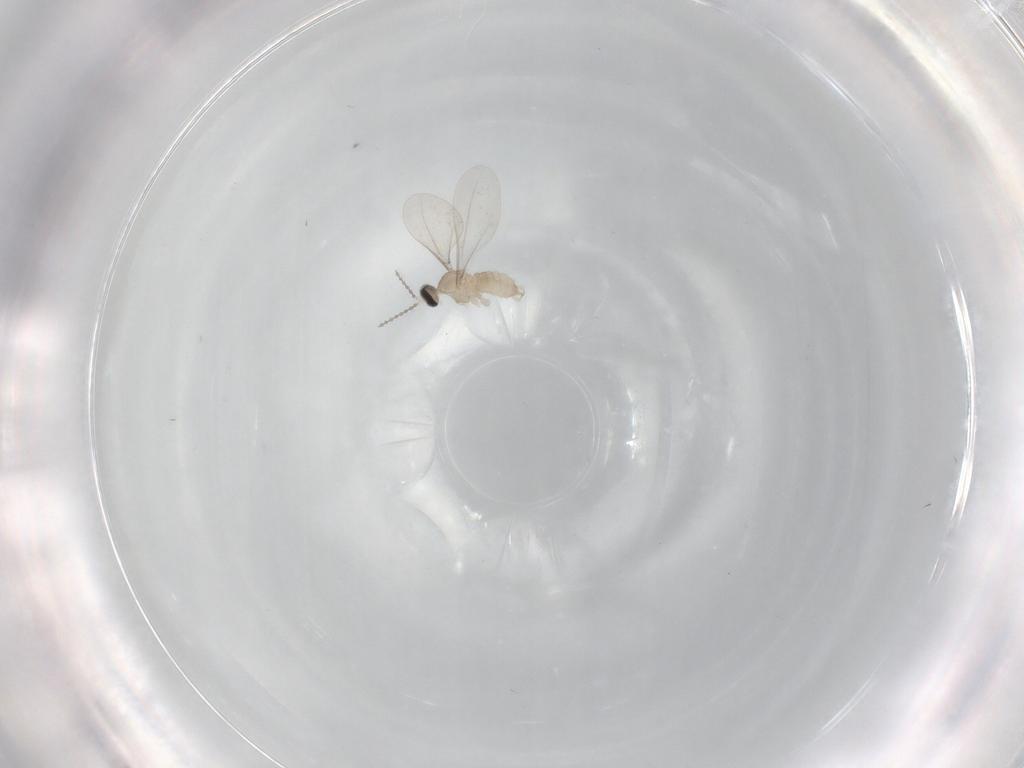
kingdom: Animalia
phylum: Arthropoda
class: Insecta
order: Diptera
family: Cecidomyiidae
